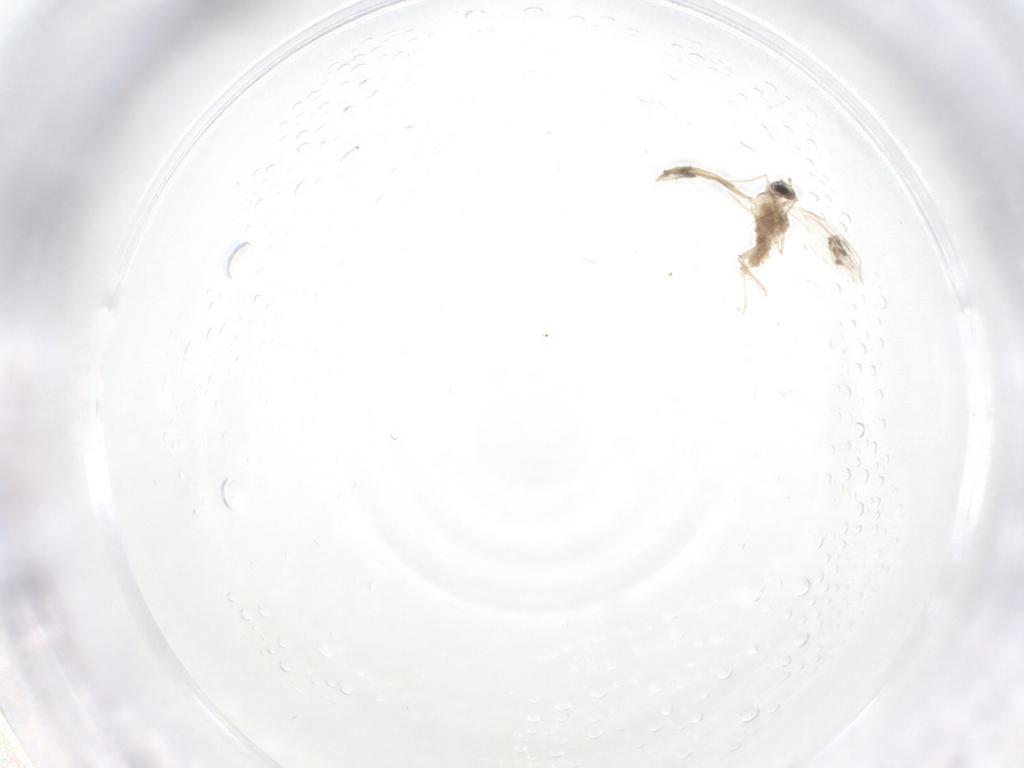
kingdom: Animalia
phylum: Arthropoda
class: Insecta
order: Diptera
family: Cecidomyiidae
